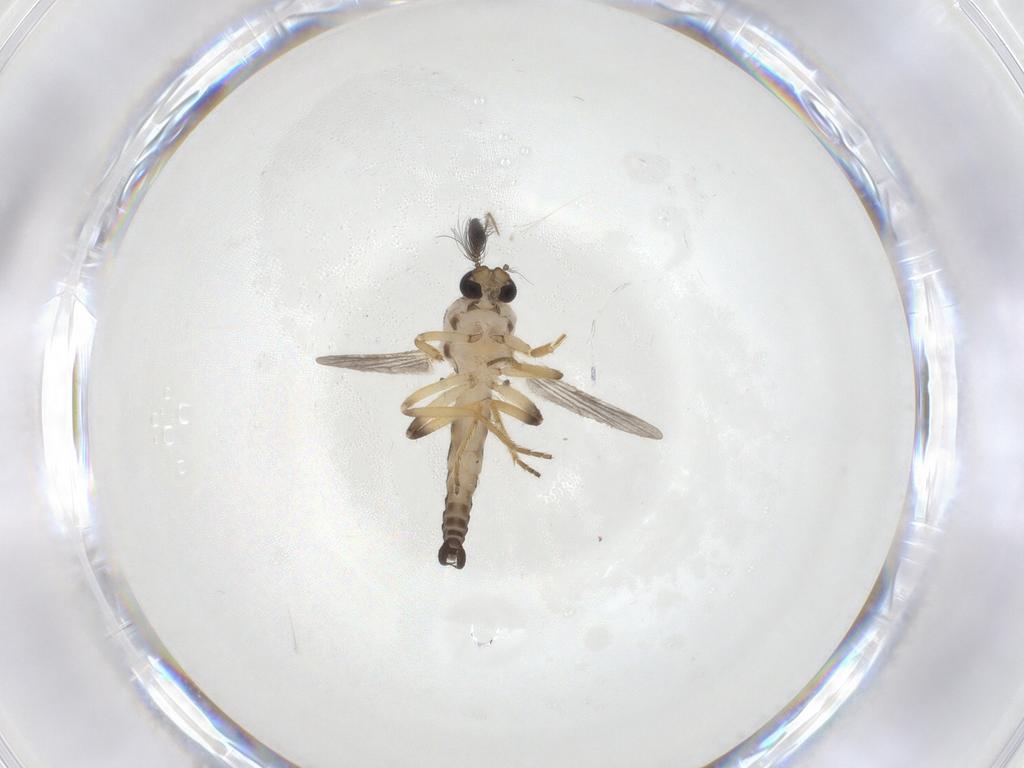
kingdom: Animalia
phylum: Arthropoda
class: Insecta
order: Diptera
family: Ceratopogonidae
